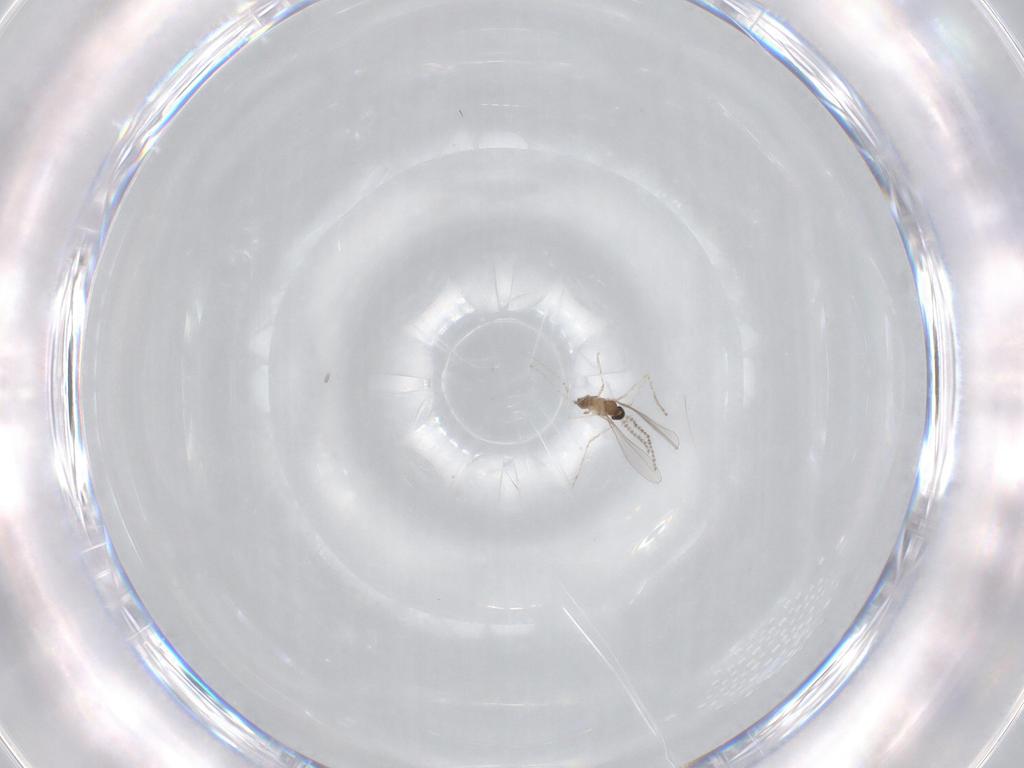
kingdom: Animalia
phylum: Arthropoda
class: Insecta
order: Diptera
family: Cecidomyiidae
